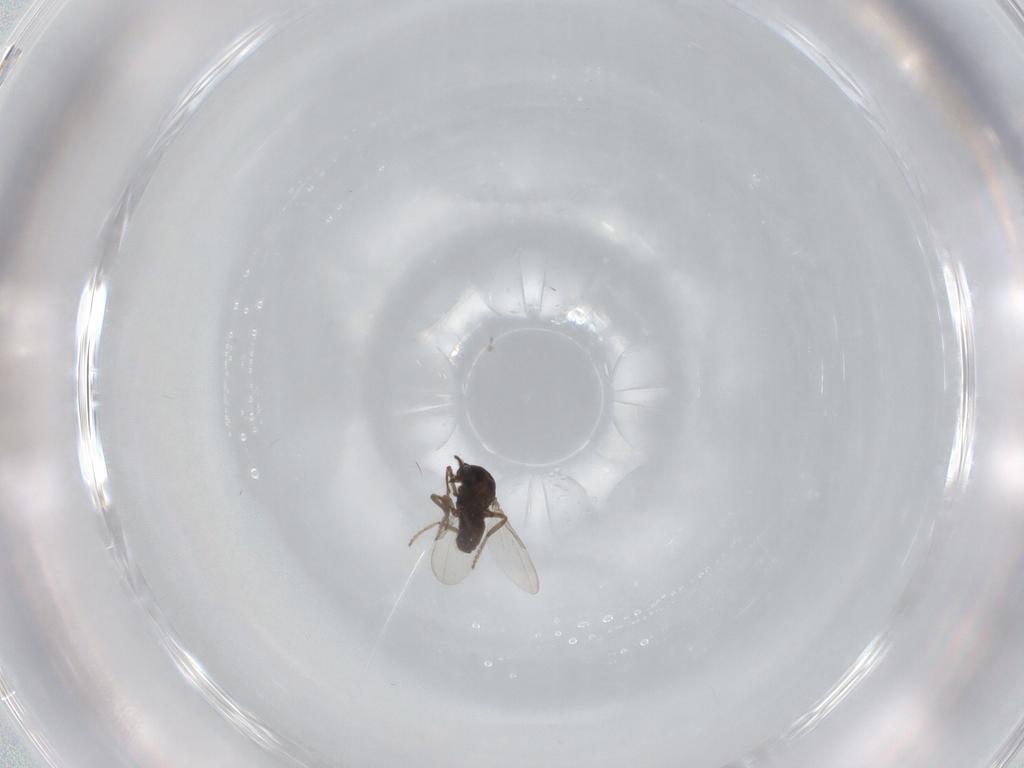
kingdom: Animalia
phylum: Arthropoda
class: Insecta
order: Diptera
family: Ceratopogonidae
